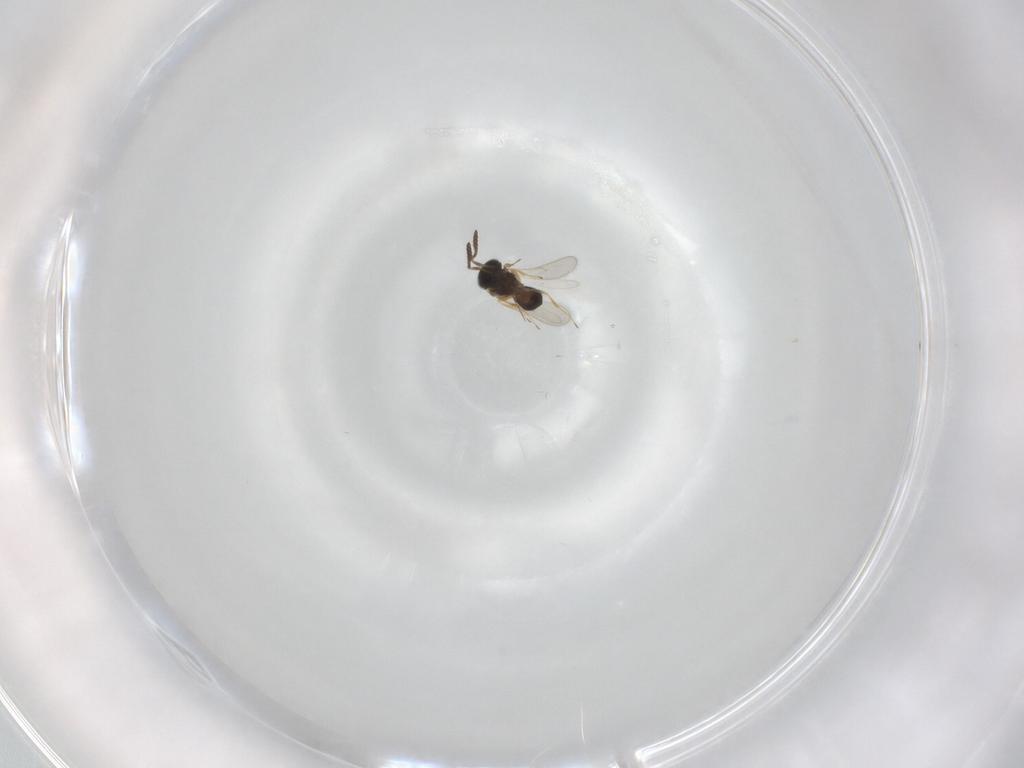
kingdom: Animalia
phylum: Arthropoda
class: Insecta
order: Hymenoptera
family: Scelionidae
